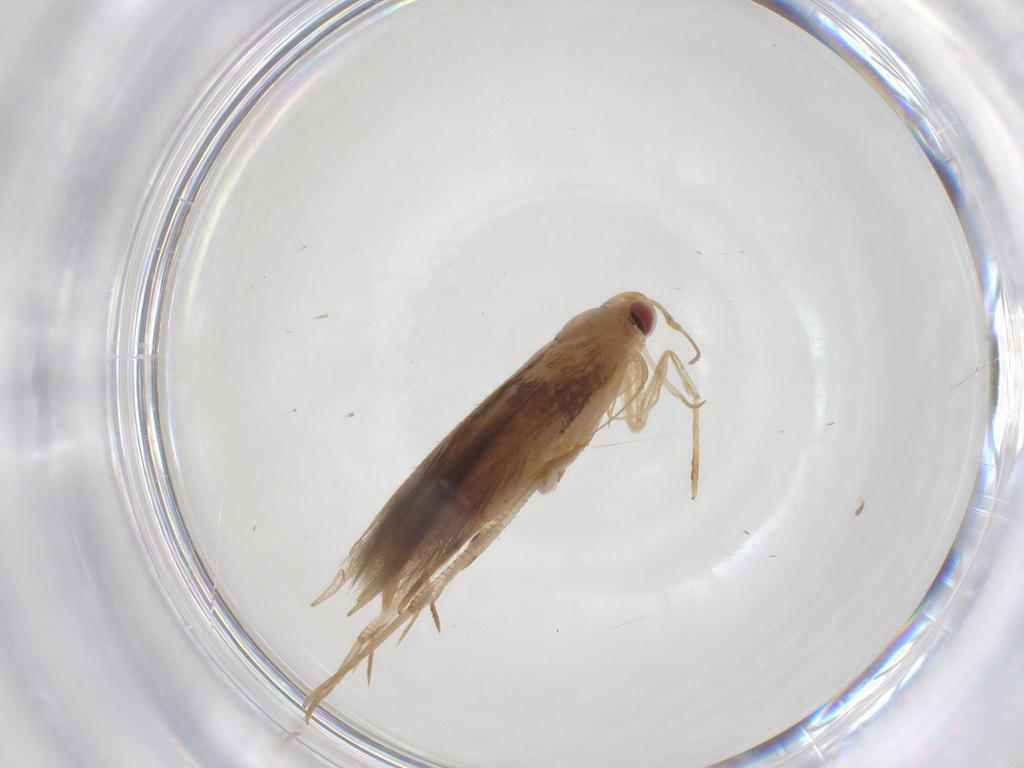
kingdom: Animalia
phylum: Arthropoda
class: Insecta
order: Lepidoptera
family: Cosmopterigidae
